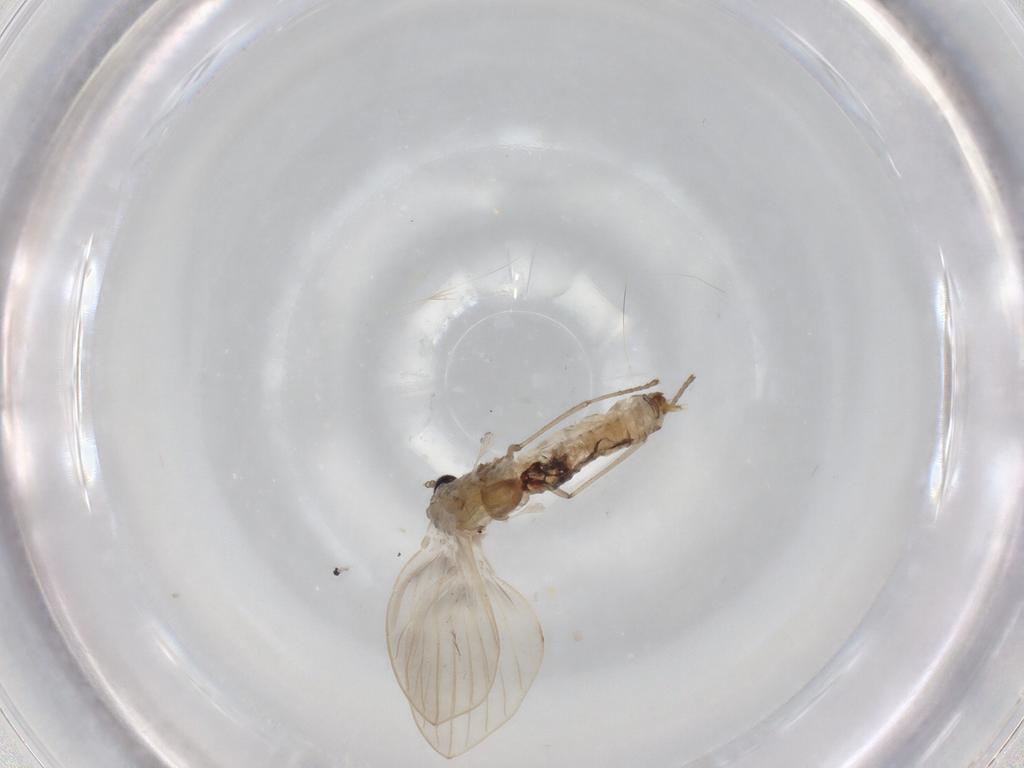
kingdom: Animalia
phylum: Arthropoda
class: Insecta
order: Diptera
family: Psychodidae
